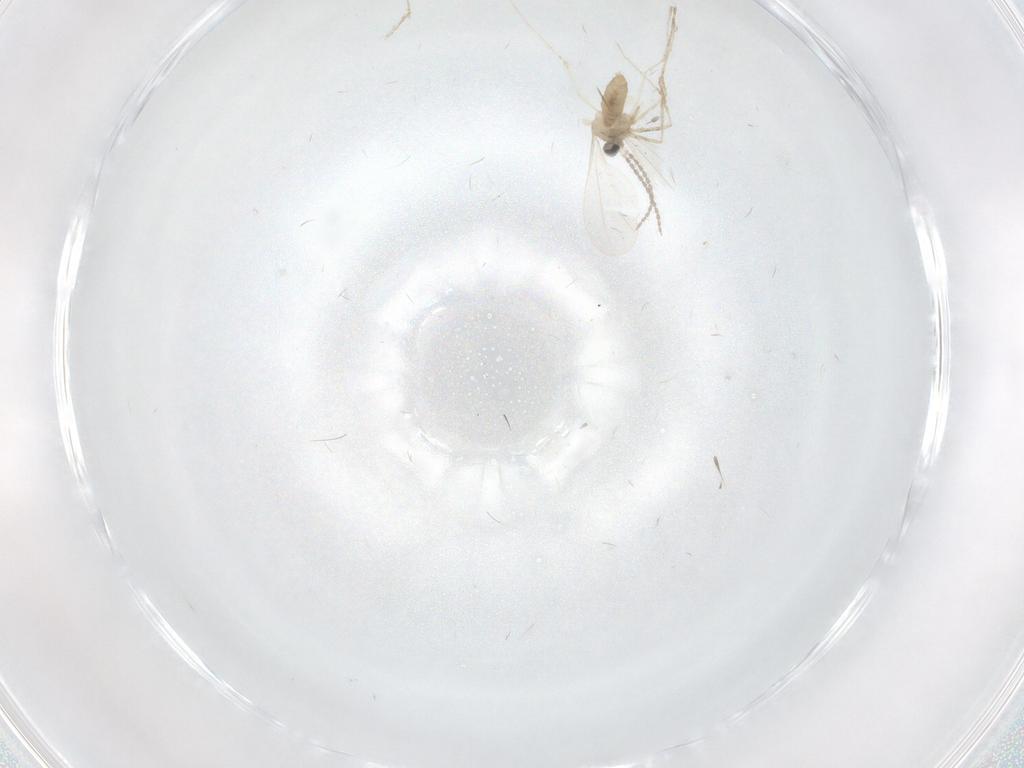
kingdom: Animalia
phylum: Arthropoda
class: Insecta
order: Diptera
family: Cecidomyiidae
